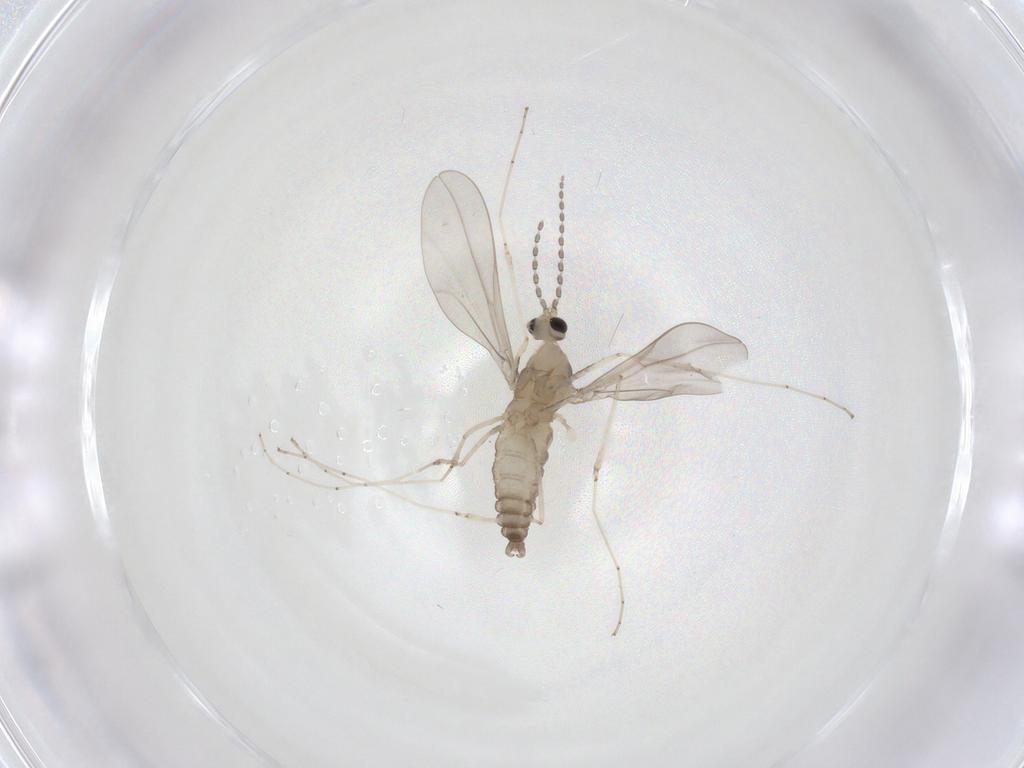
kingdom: Animalia
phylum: Arthropoda
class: Insecta
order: Diptera
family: Cecidomyiidae
